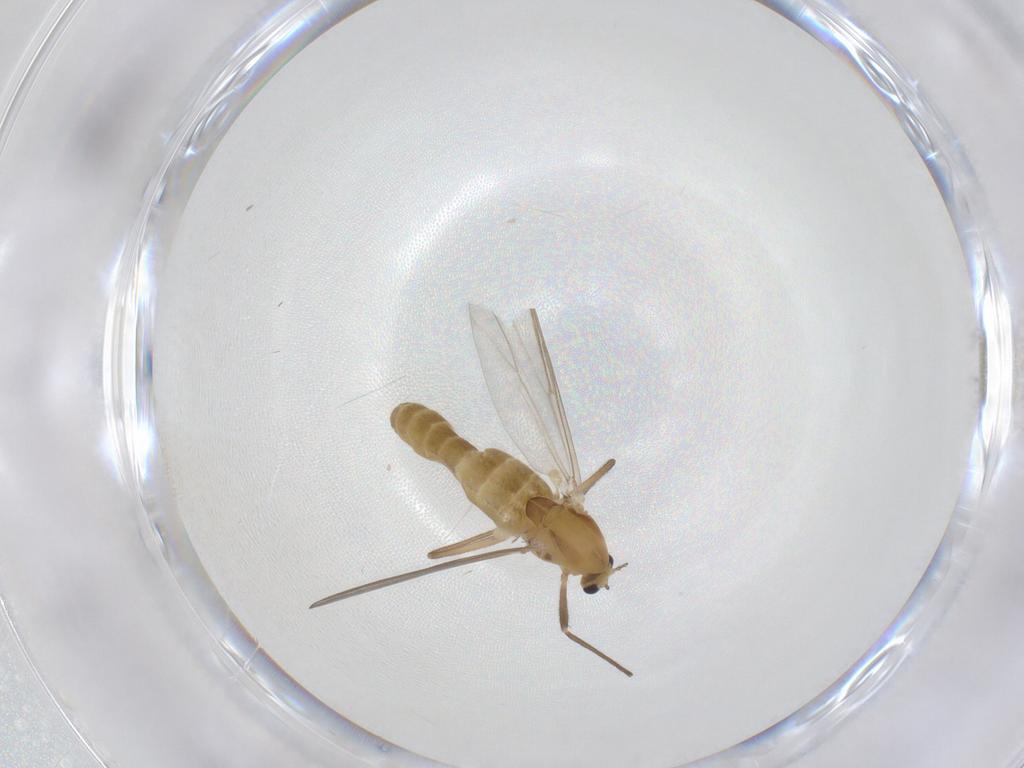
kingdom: Animalia
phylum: Arthropoda
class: Insecta
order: Diptera
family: Chironomidae
